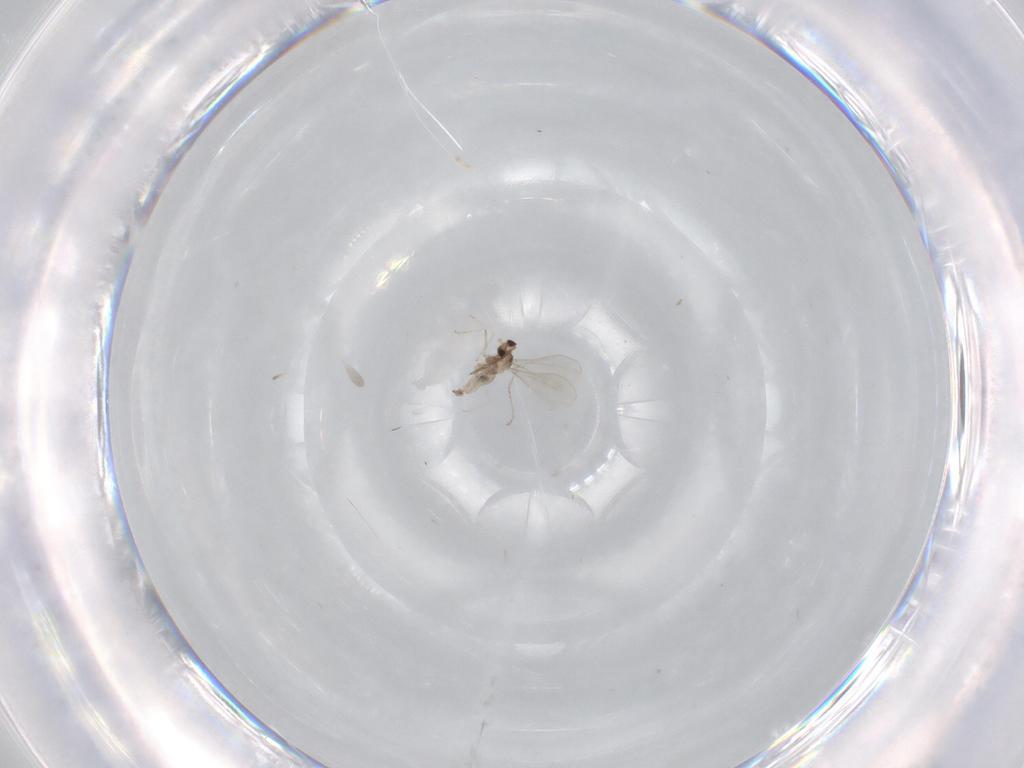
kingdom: Animalia
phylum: Arthropoda
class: Insecta
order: Diptera
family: Cecidomyiidae
